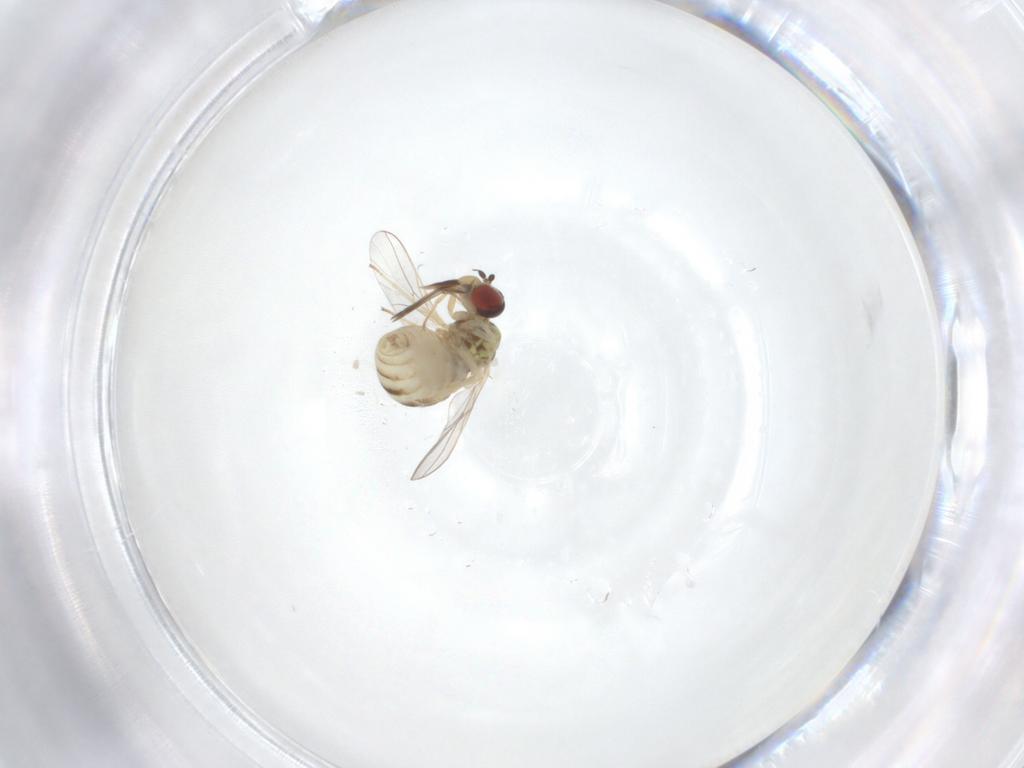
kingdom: Animalia
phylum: Arthropoda
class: Insecta
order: Diptera
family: Bombyliidae
